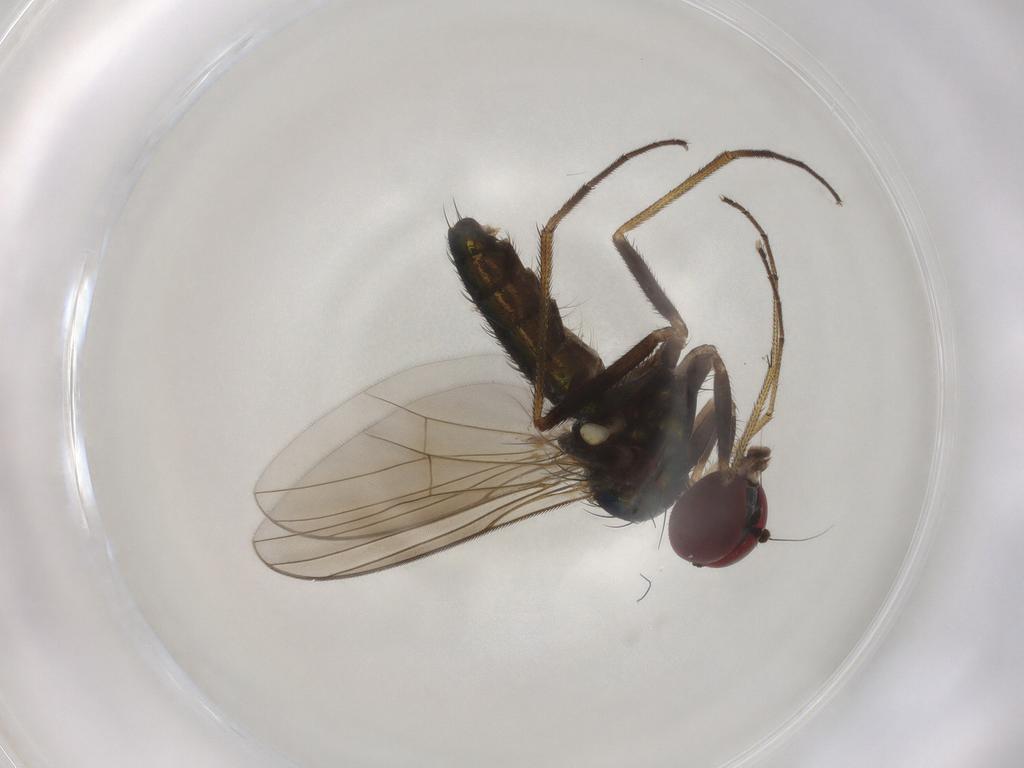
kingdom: Animalia
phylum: Arthropoda
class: Insecta
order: Diptera
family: Dolichopodidae
